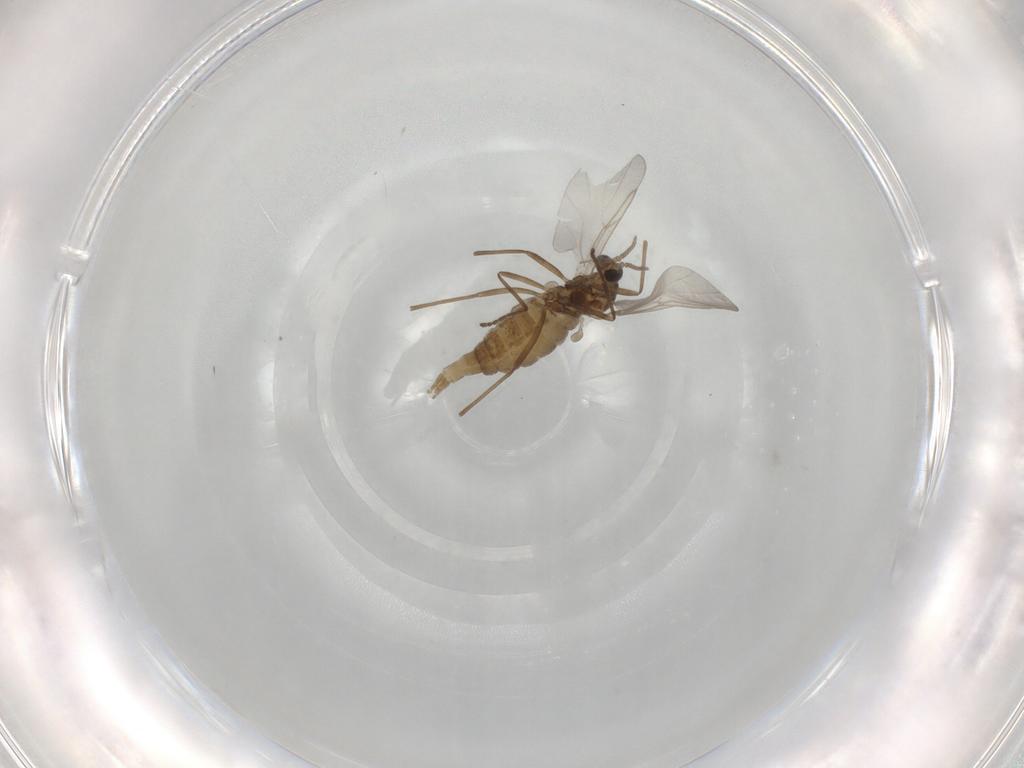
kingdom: Animalia
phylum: Arthropoda
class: Insecta
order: Diptera
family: Cecidomyiidae
